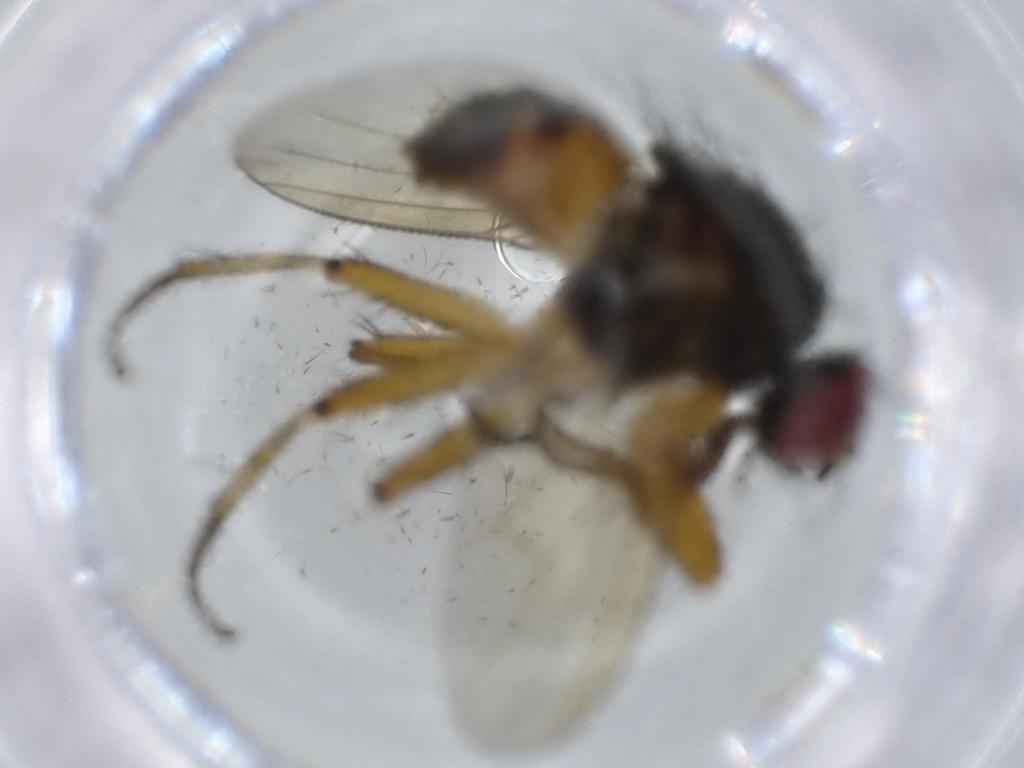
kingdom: Animalia
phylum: Arthropoda
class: Insecta
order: Diptera
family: Muscidae
